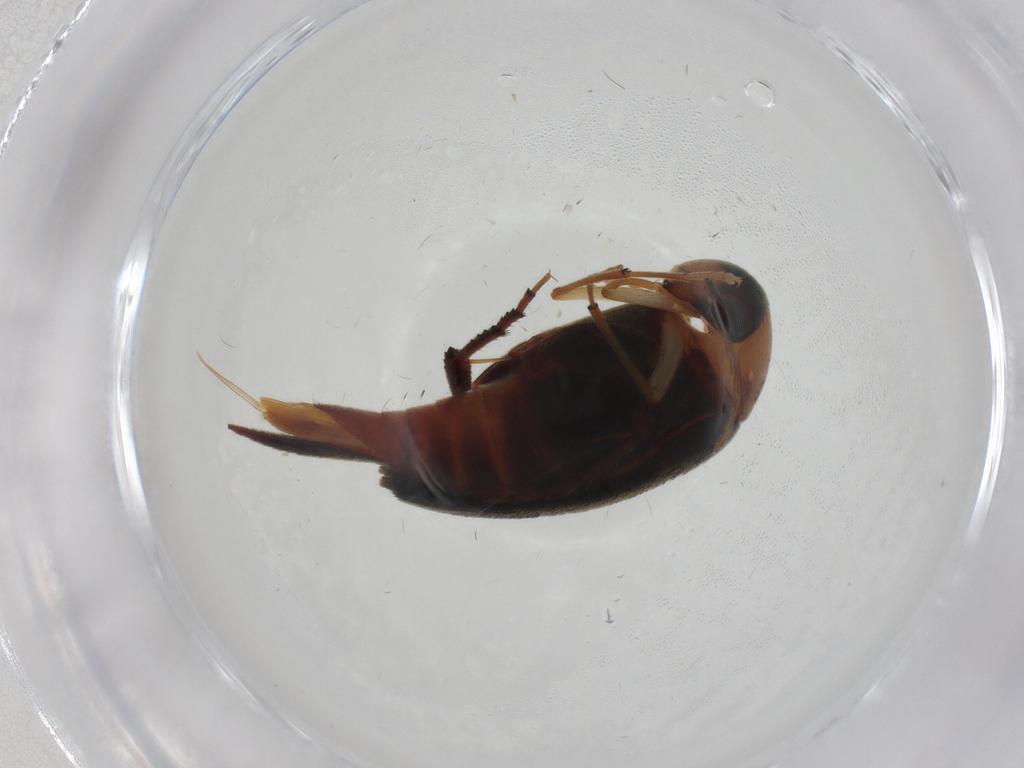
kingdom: Animalia
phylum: Arthropoda
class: Insecta
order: Coleoptera
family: Mordellidae
